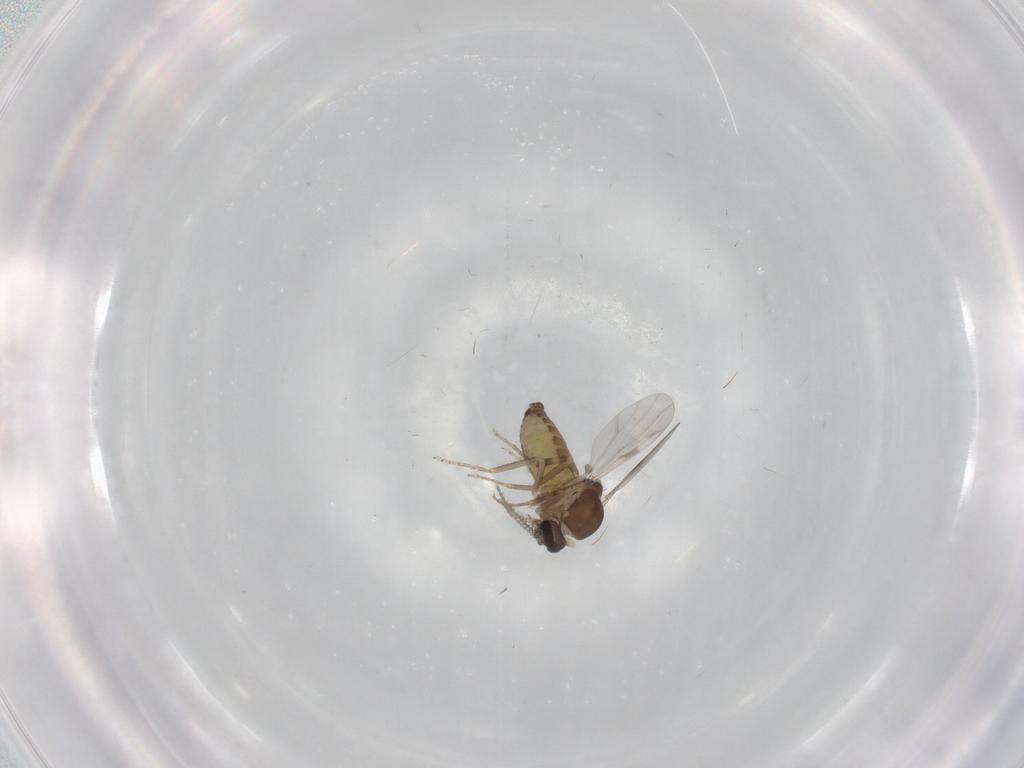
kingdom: Animalia
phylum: Arthropoda
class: Insecta
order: Diptera
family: Ceratopogonidae
